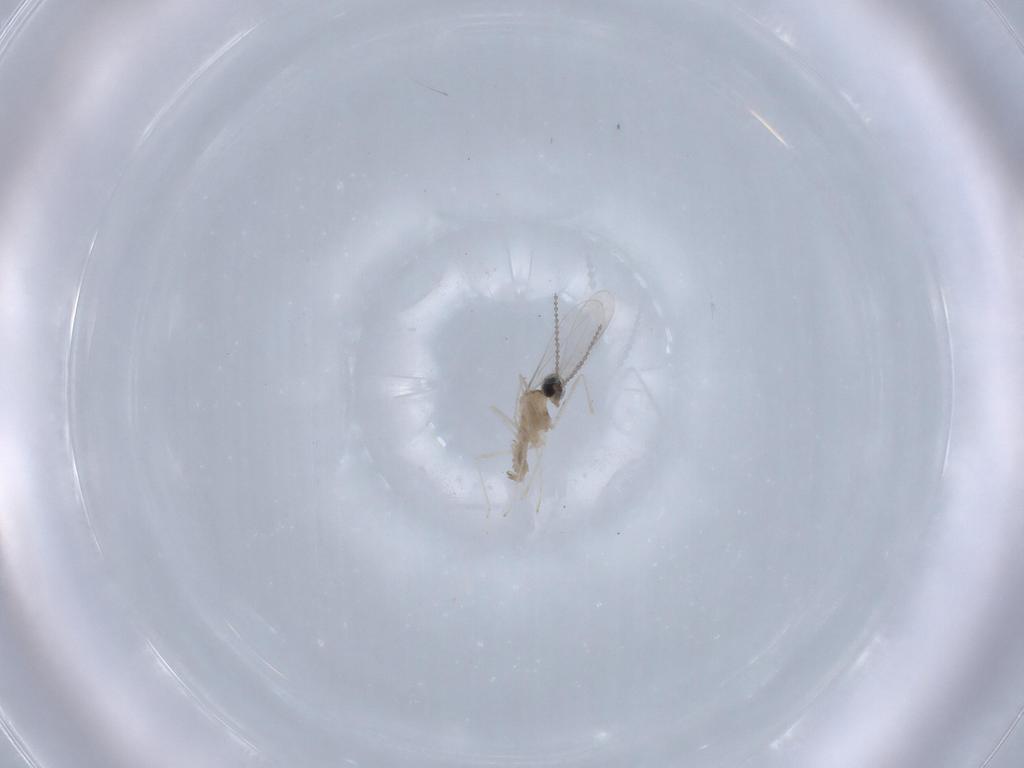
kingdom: Animalia
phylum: Arthropoda
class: Insecta
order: Diptera
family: Cecidomyiidae
